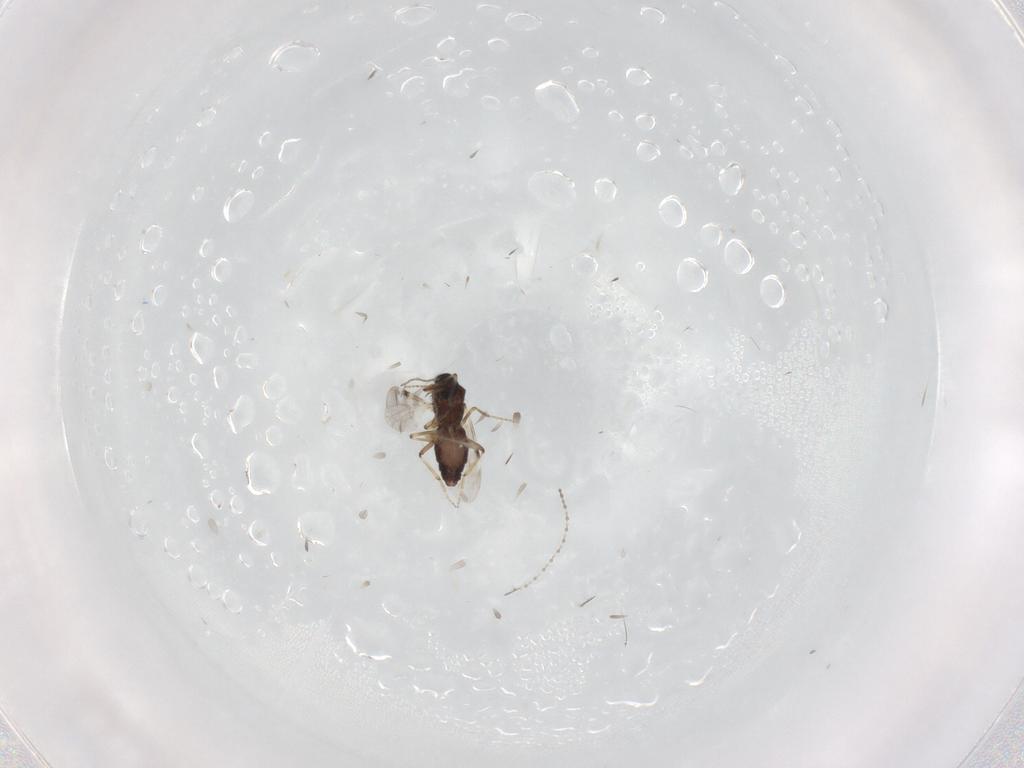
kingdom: Animalia
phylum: Arthropoda
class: Insecta
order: Diptera
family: Cecidomyiidae
